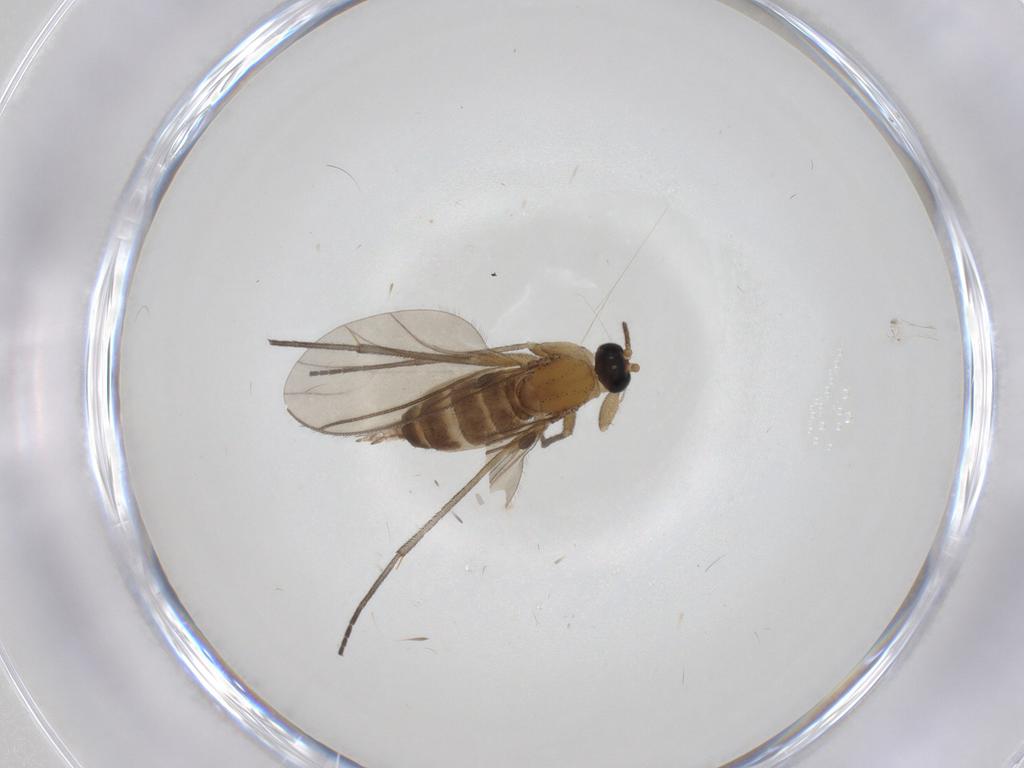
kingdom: Animalia
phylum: Arthropoda
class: Insecta
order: Diptera
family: Sciaridae
